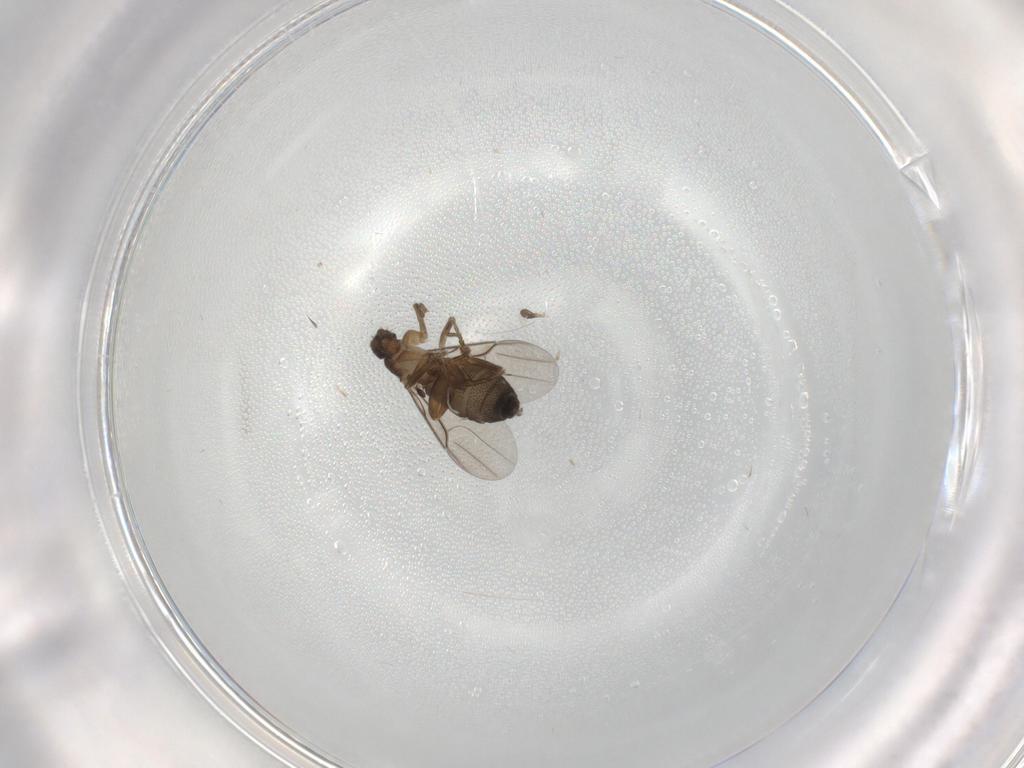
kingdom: Animalia
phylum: Arthropoda
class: Insecta
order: Diptera
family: Phoridae
